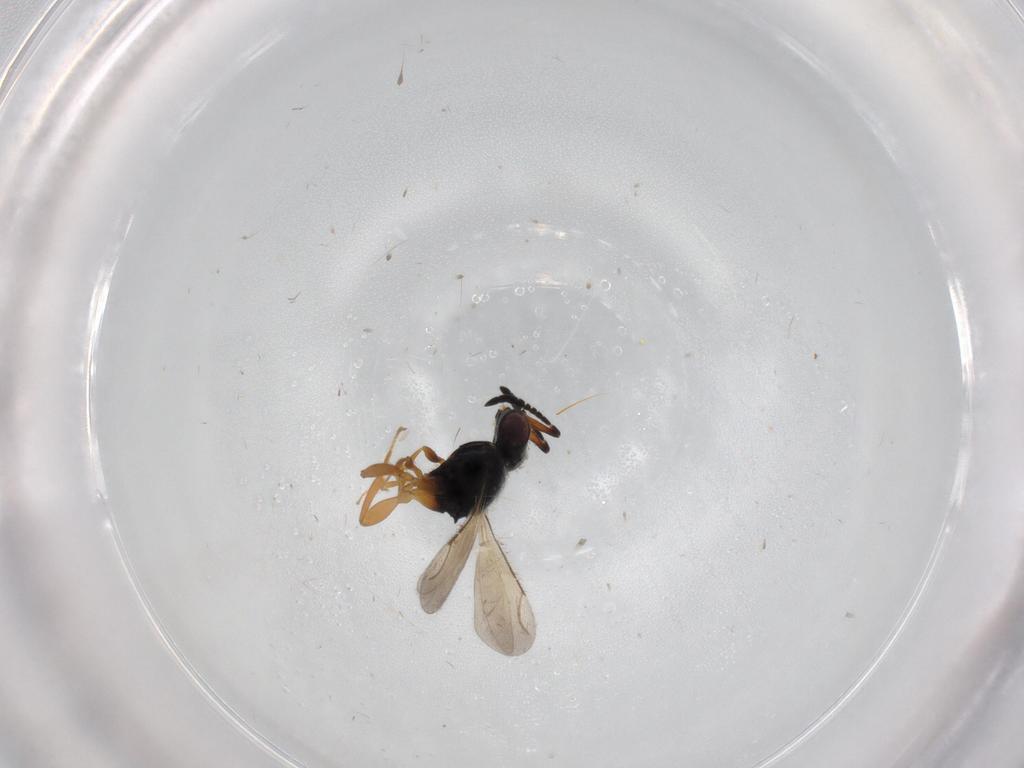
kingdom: Animalia
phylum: Arthropoda
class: Insecta
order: Hymenoptera
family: Ceraphronidae
